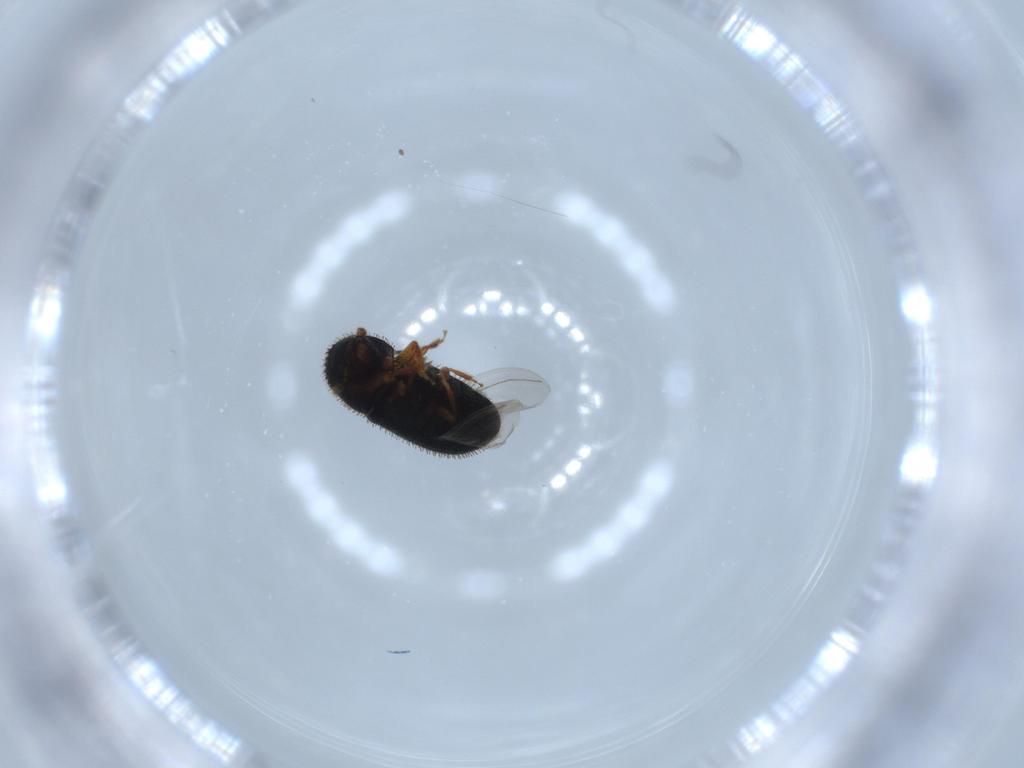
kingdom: Animalia
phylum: Arthropoda
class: Insecta
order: Coleoptera
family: Curculionidae
